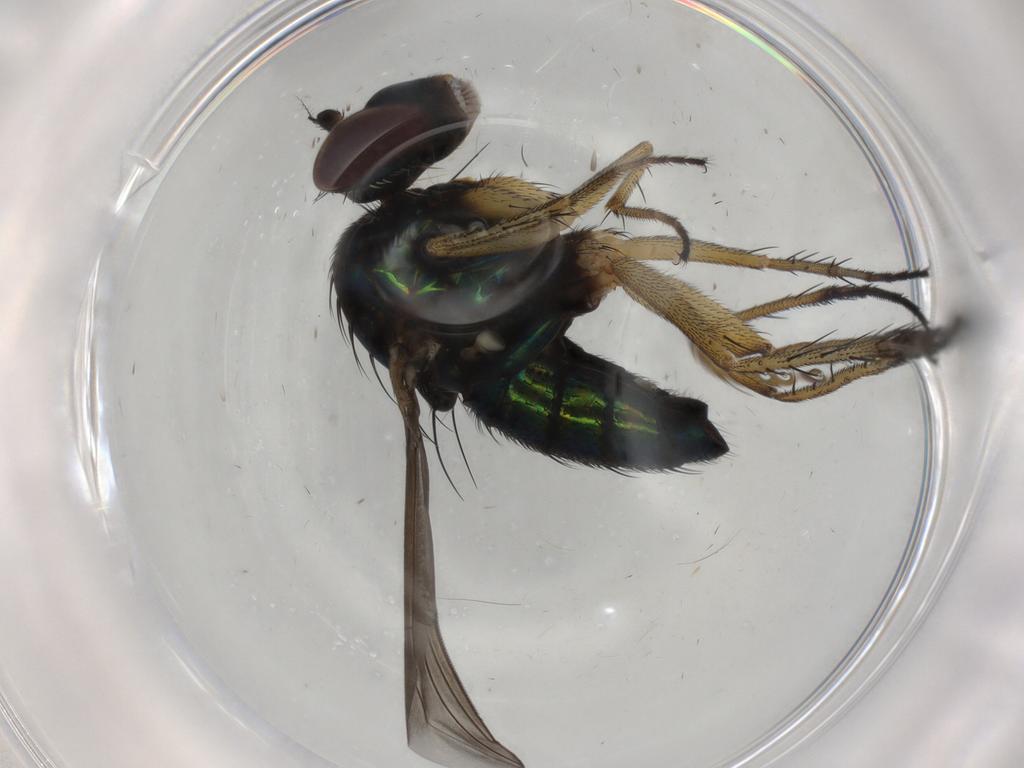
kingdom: Animalia
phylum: Arthropoda
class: Insecta
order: Diptera
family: Dolichopodidae
